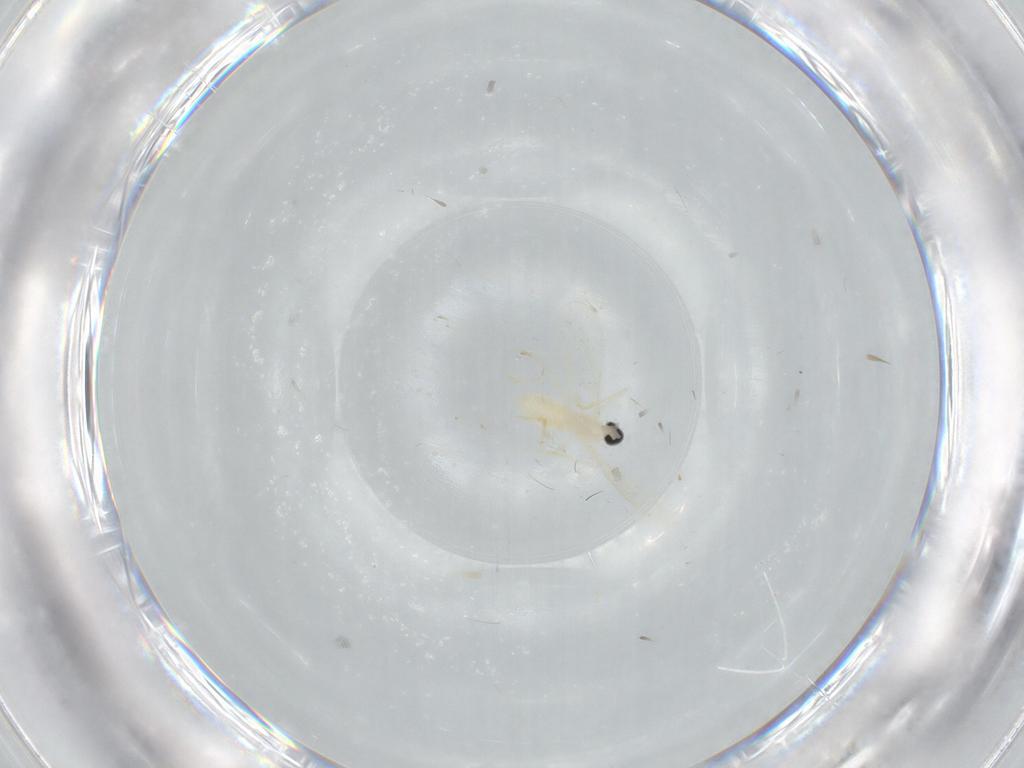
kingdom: Animalia
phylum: Arthropoda
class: Insecta
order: Diptera
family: Cecidomyiidae
